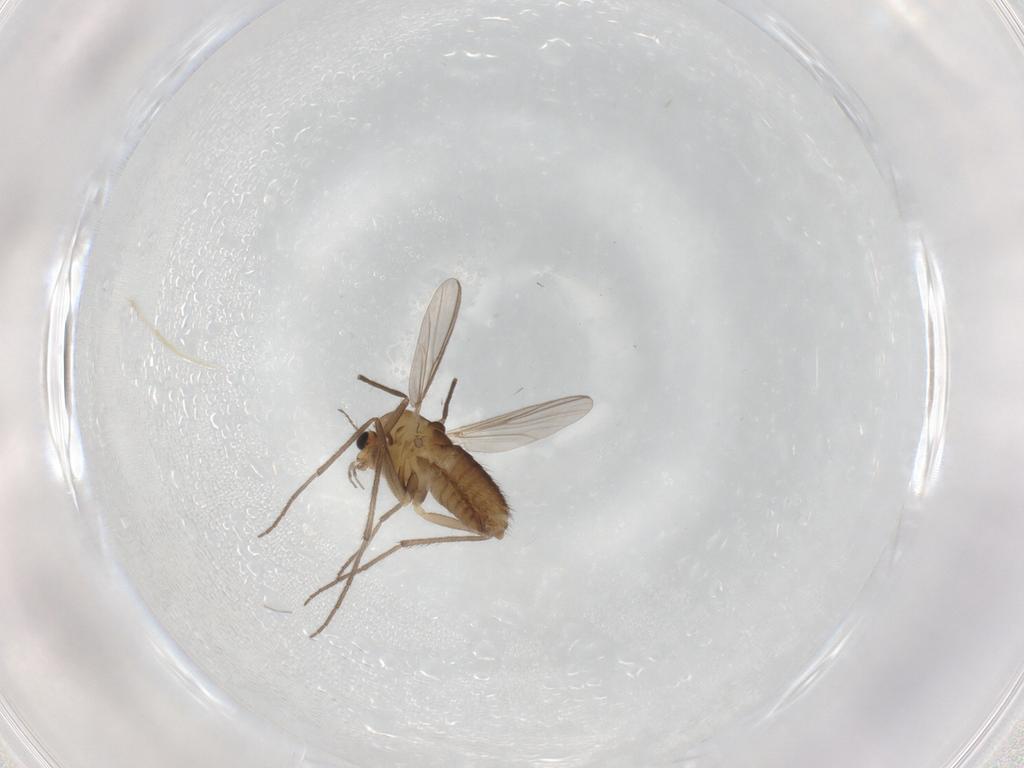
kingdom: Animalia
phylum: Arthropoda
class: Insecta
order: Diptera
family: Chironomidae
